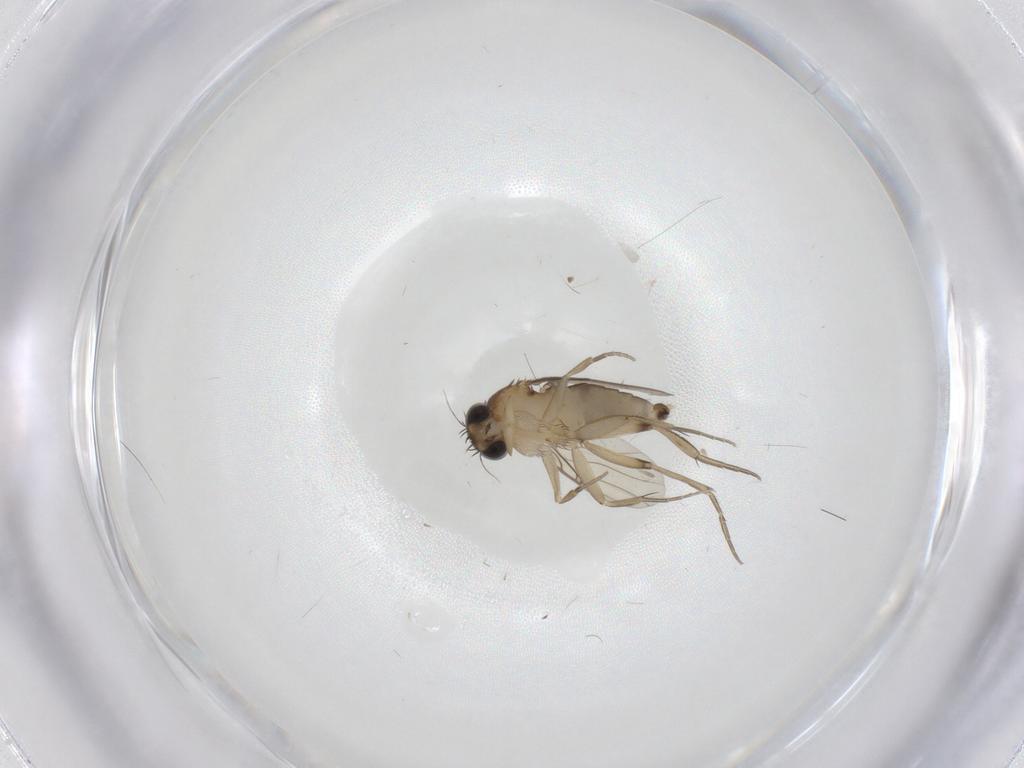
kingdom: Animalia
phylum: Arthropoda
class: Insecta
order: Diptera
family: Phoridae
